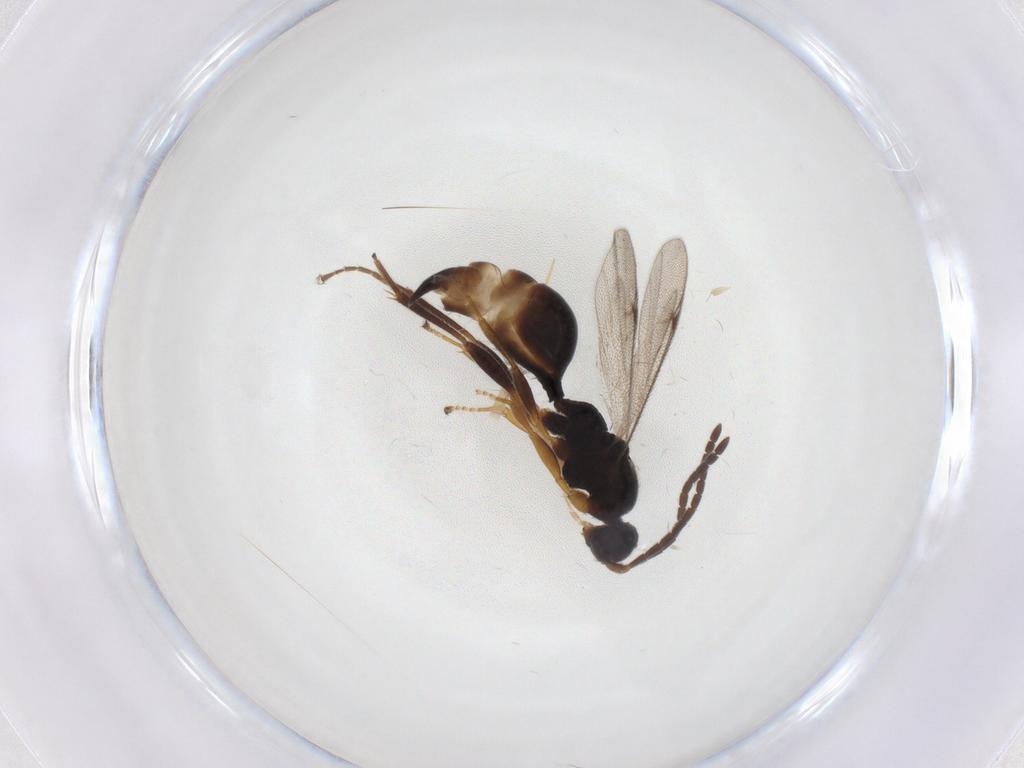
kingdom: Animalia
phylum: Arthropoda
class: Insecta
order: Hymenoptera
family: Proctotrupidae
